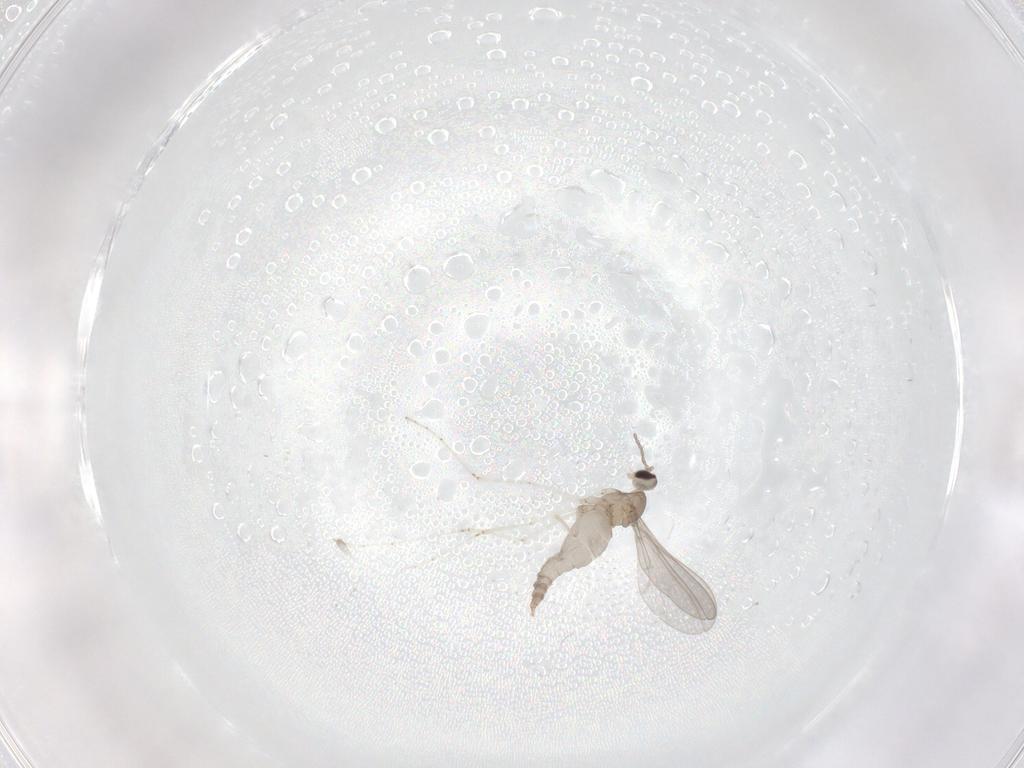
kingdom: Animalia
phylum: Arthropoda
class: Insecta
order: Diptera
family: Cecidomyiidae
